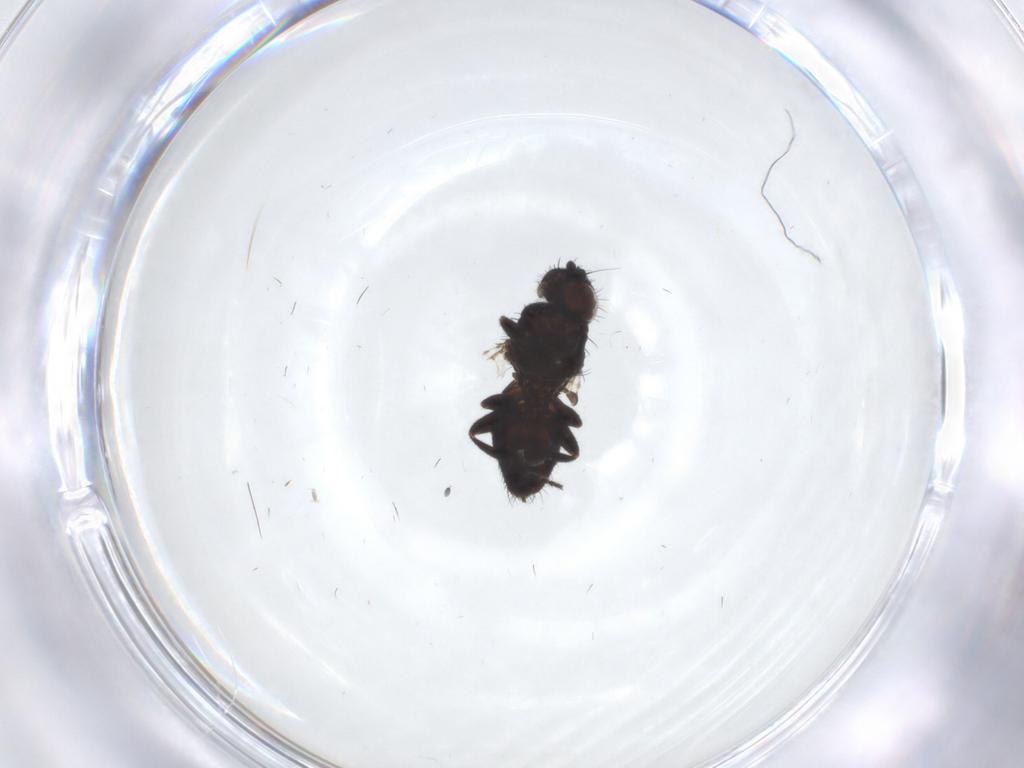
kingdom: Animalia
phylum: Arthropoda
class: Insecta
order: Diptera
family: Milichiidae
